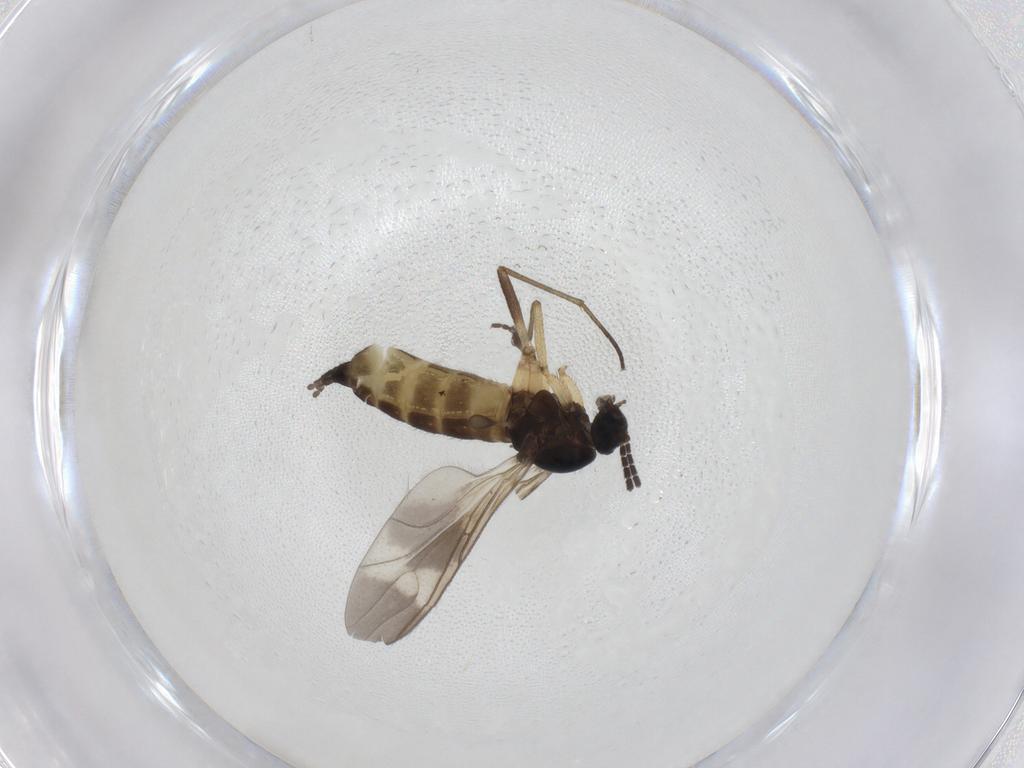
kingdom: Animalia
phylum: Arthropoda
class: Insecta
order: Diptera
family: Sciaridae
